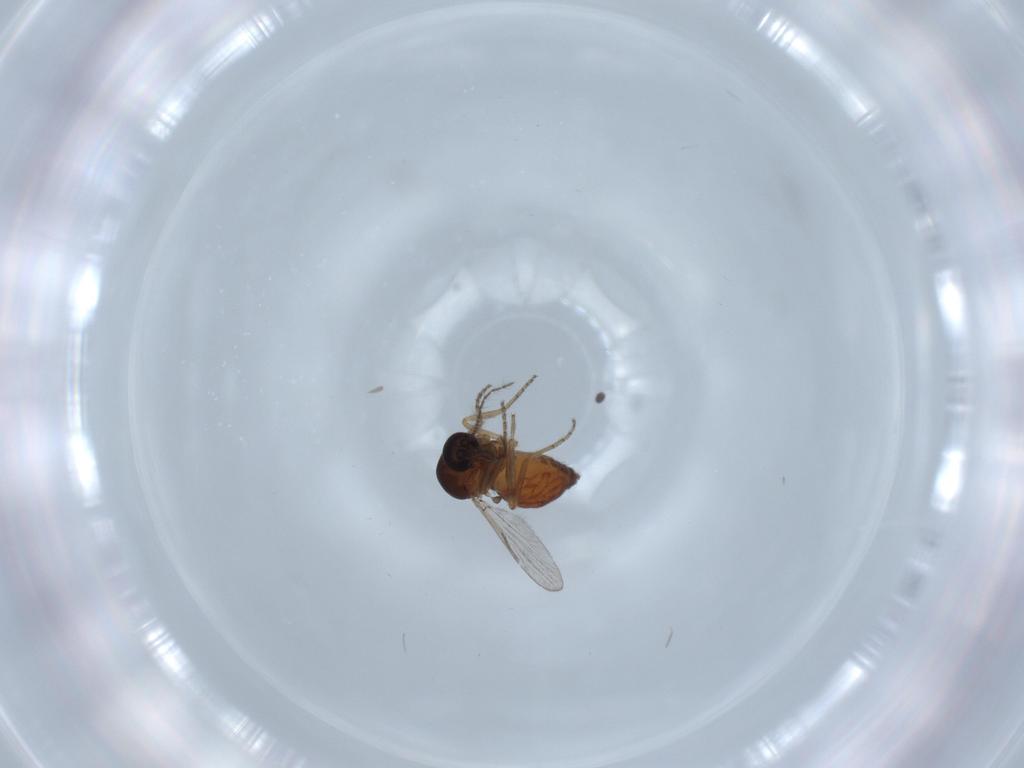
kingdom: Animalia
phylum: Arthropoda
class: Insecta
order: Diptera
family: Ceratopogonidae
